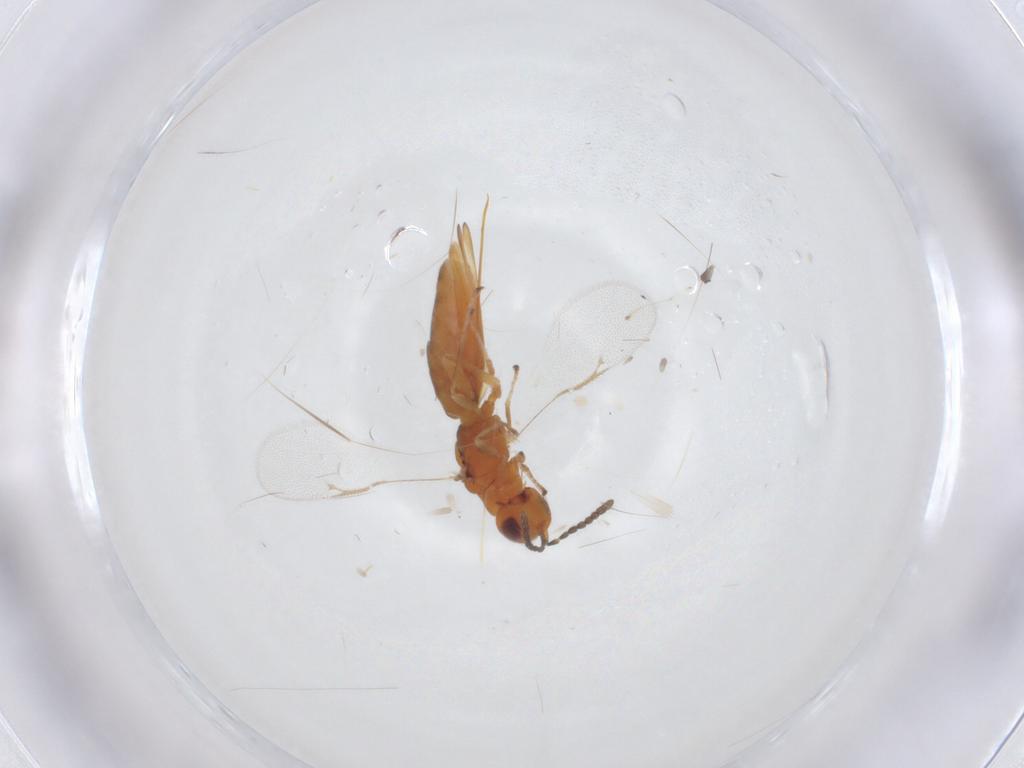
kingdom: Animalia
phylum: Arthropoda
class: Insecta
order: Hymenoptera
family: Eurytomidae
